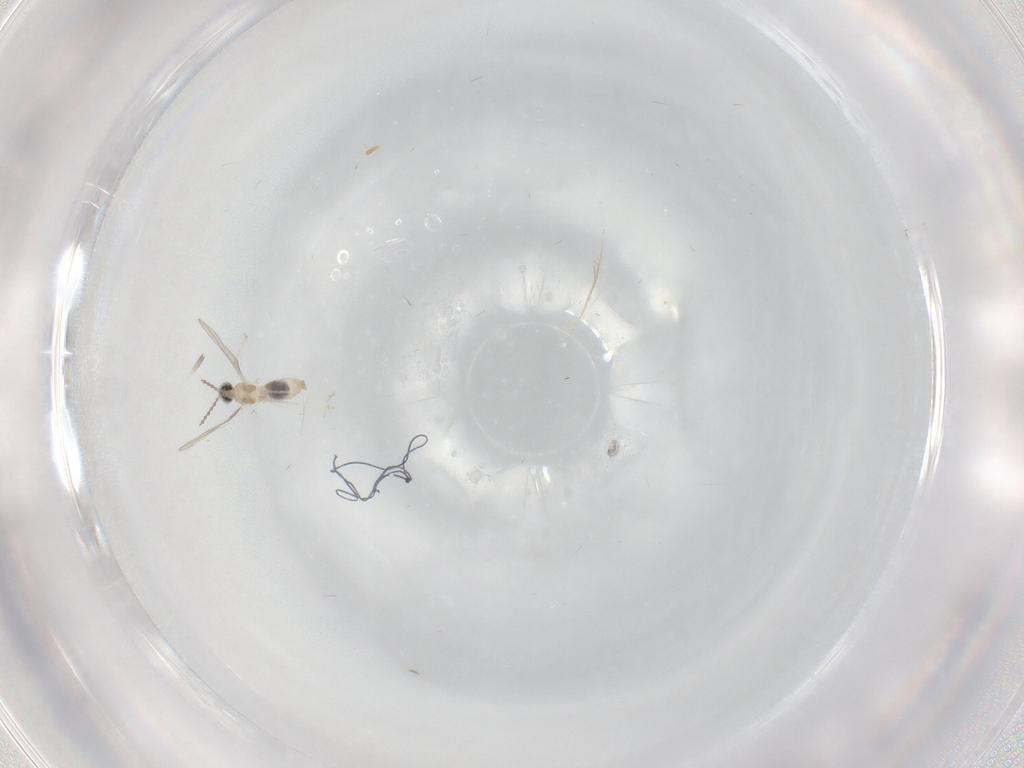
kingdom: Animalia
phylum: Arthropoda
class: Insecta
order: Diptera
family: Cecidomyiidae
